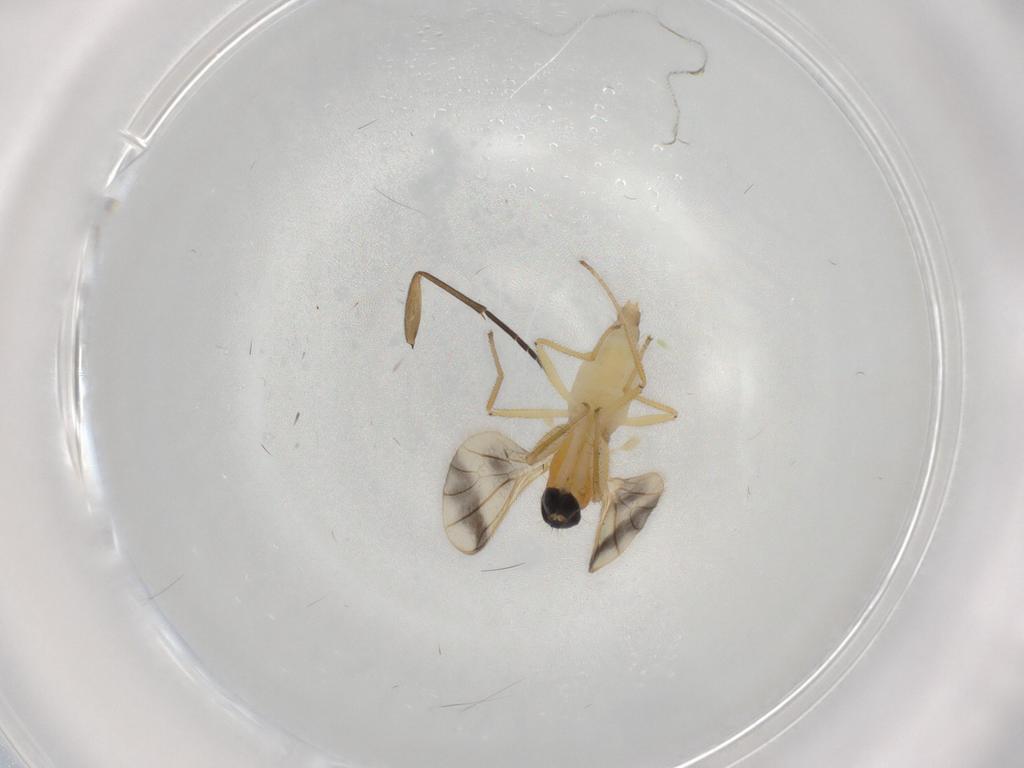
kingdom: Animalia
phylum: Arthropoda
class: Insecta
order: Diptera
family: Empididae
